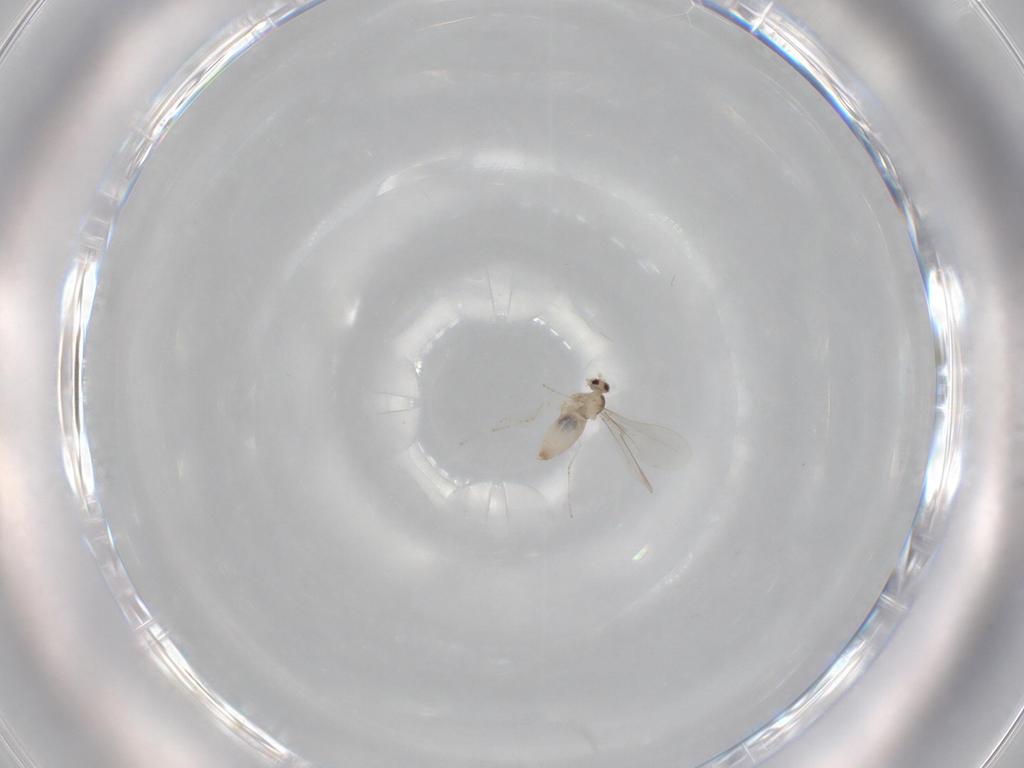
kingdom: Animalia
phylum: Arthropoda
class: Insecta
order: Diptera
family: Cecidomyiidae
